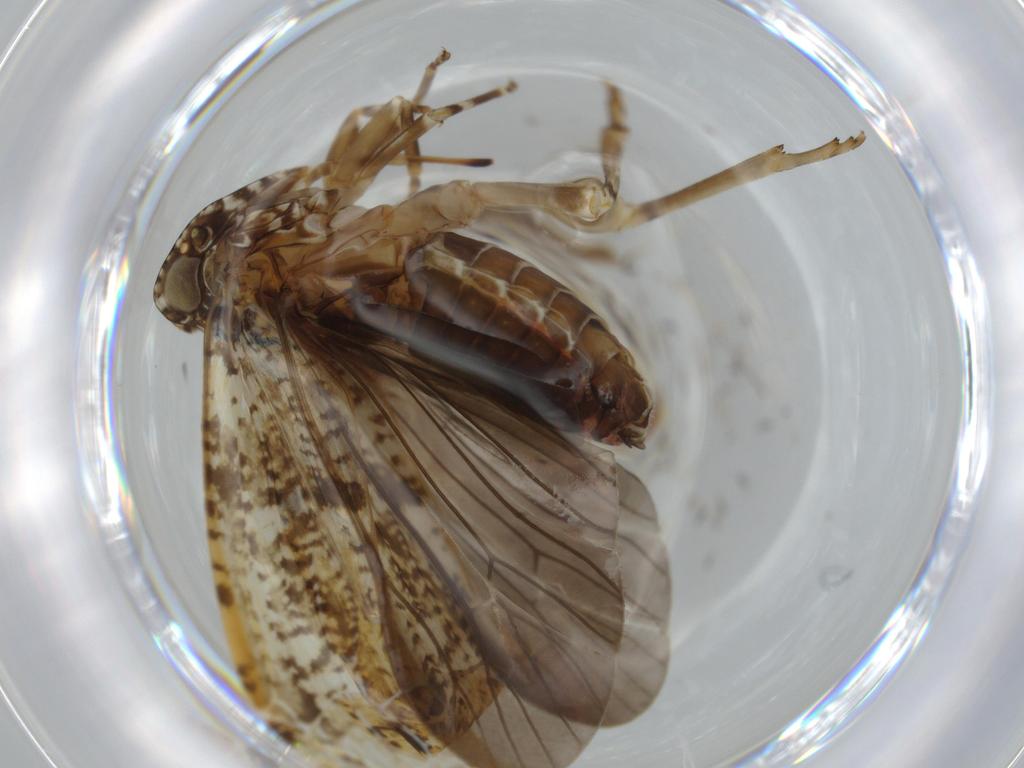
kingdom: Animalia
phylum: Arthropoda
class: Insecta
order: Hemiptera
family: Achilidae
